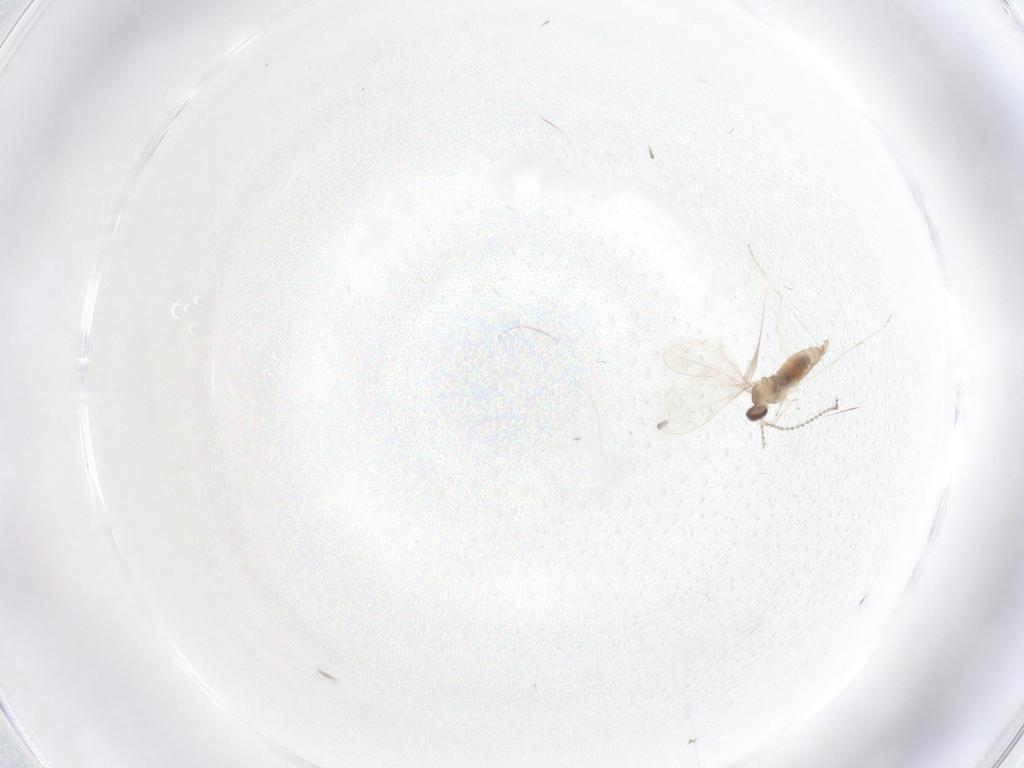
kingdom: Animalia
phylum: Arthropoda
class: Insecta
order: Diptera
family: Cecidomyiidae
